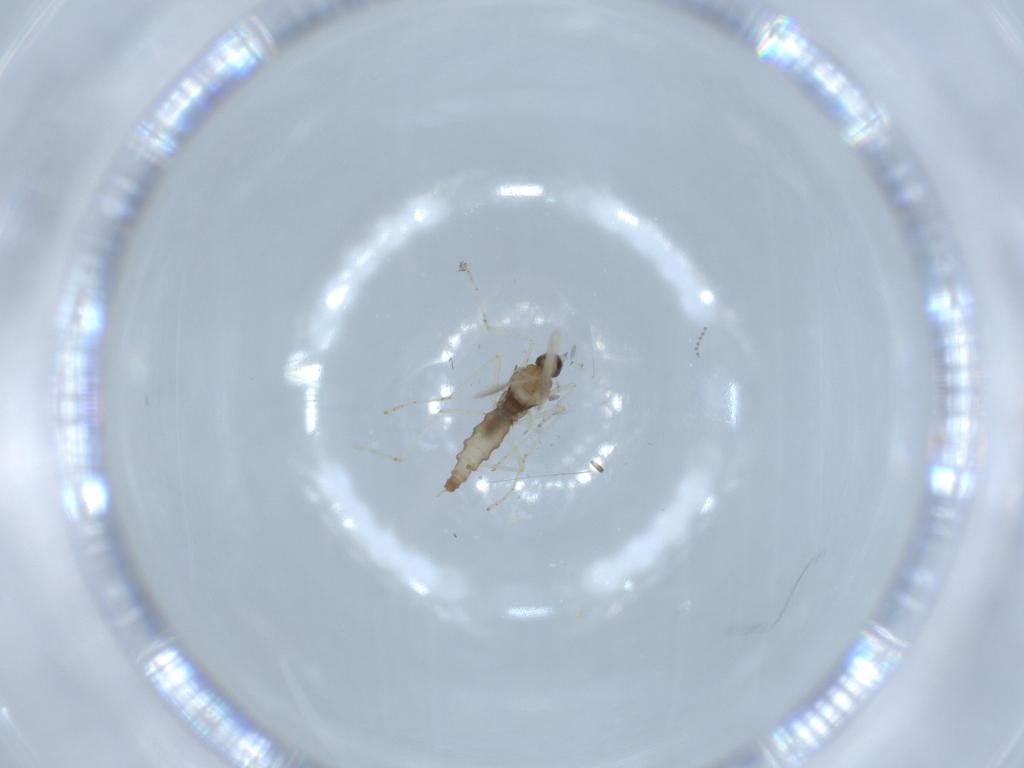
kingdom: Animalia
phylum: Arthropoda
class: Insecta
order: Diptera
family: Cecidomyiidae
